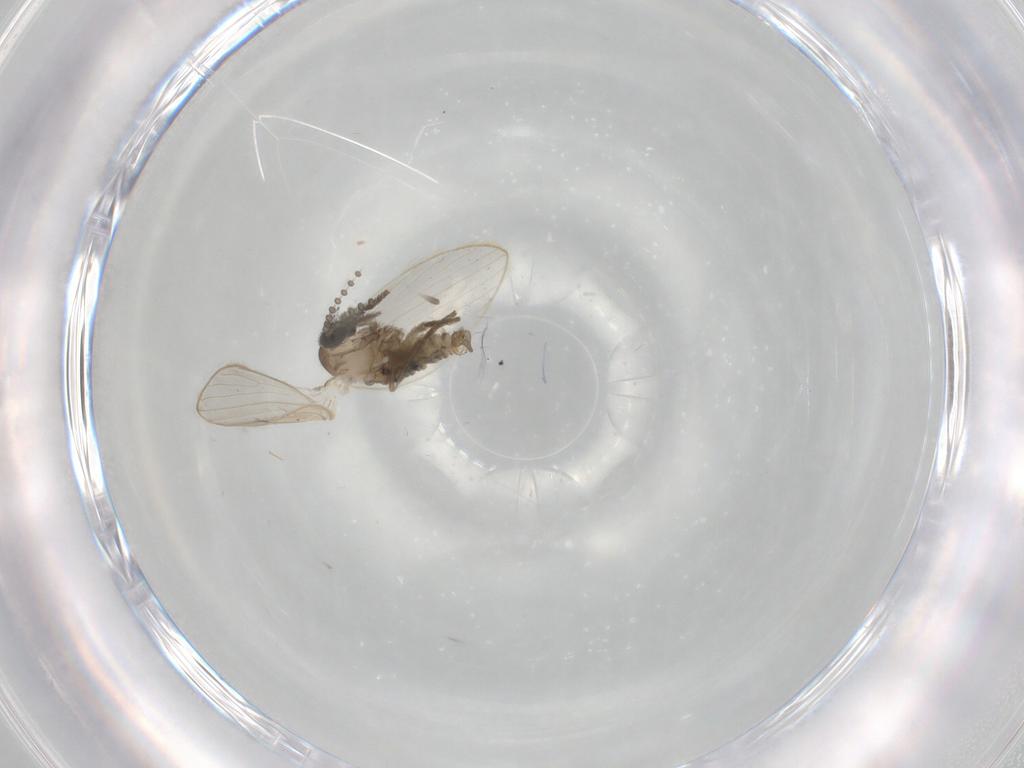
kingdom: Animalia
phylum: Arthropoda
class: Insecta
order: Diptera
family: Psychodidae
